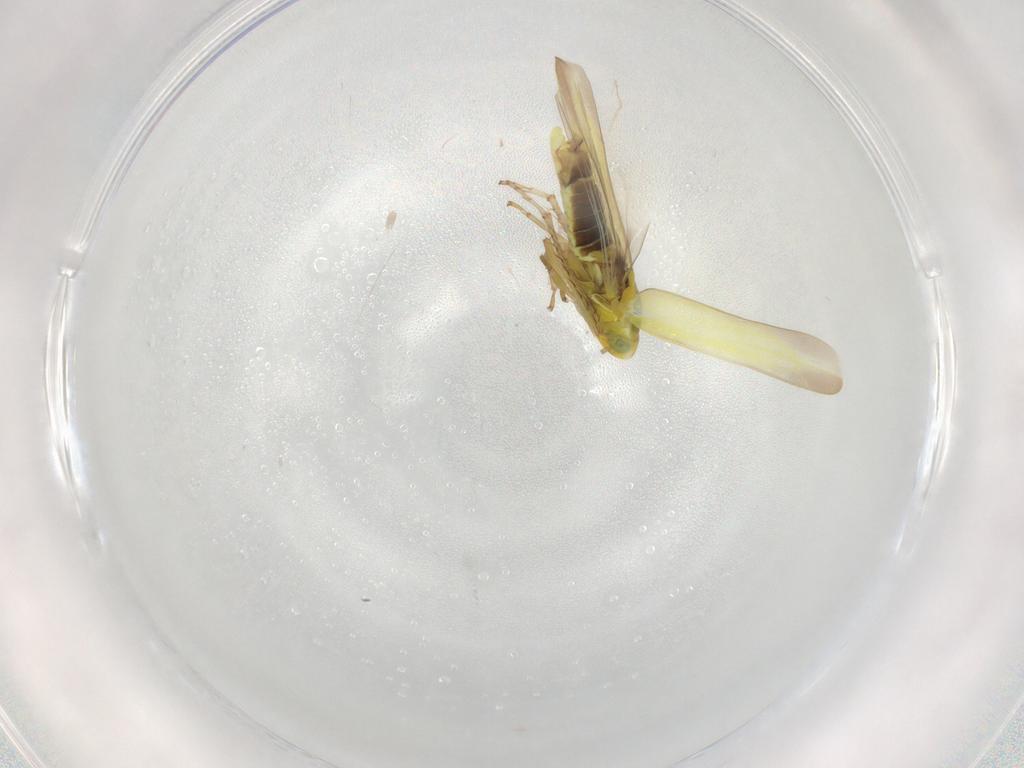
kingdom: Animalia
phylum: Arthropoda
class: Insecta
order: Hemiptera
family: Cicadellidae
